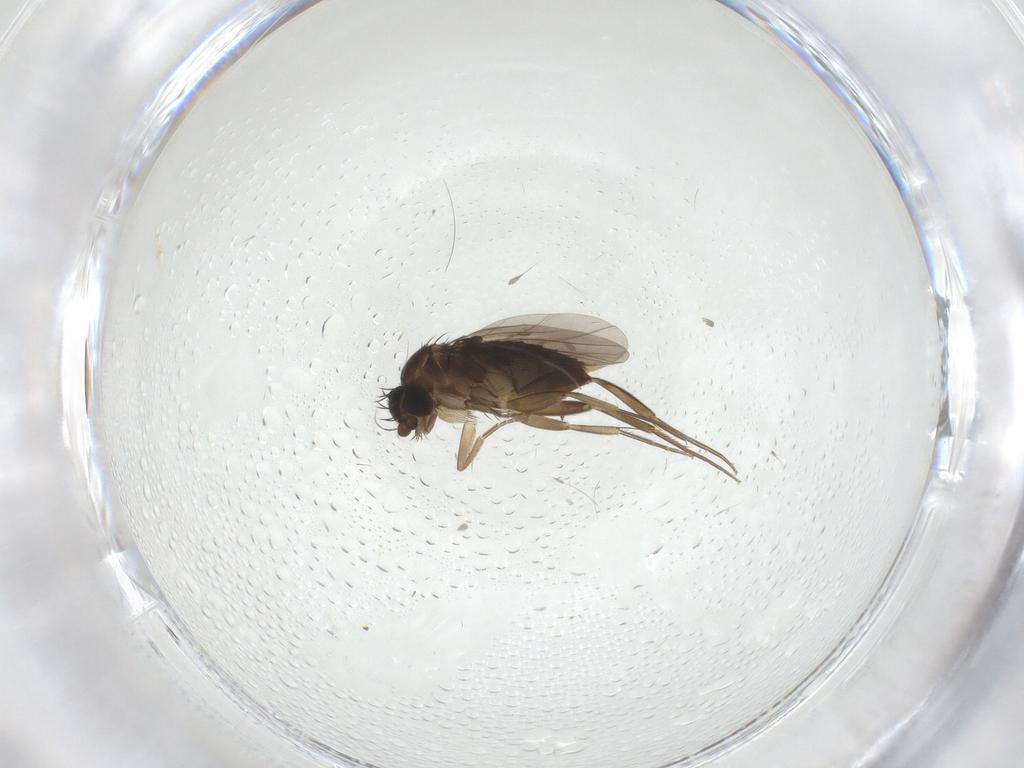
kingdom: Animalia
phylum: Arthropoda
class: Insecta
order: Diptera
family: Phoridae
